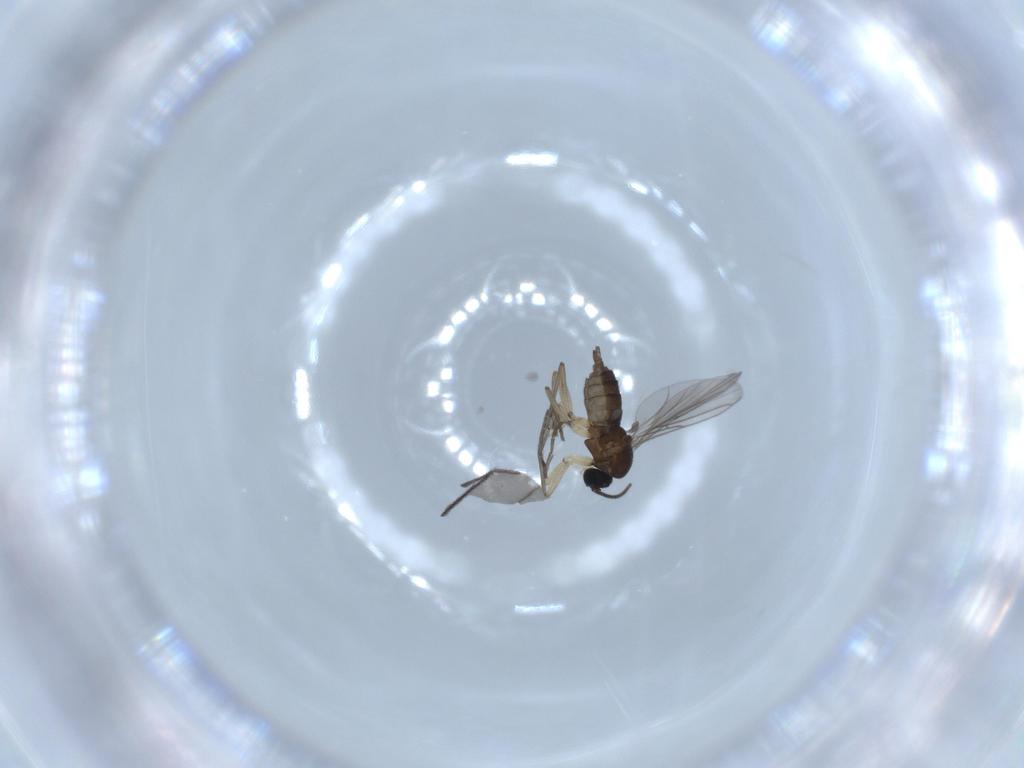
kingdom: Animalia
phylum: Arthropoda
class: Insecta
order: Diptera
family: Sciaridae
